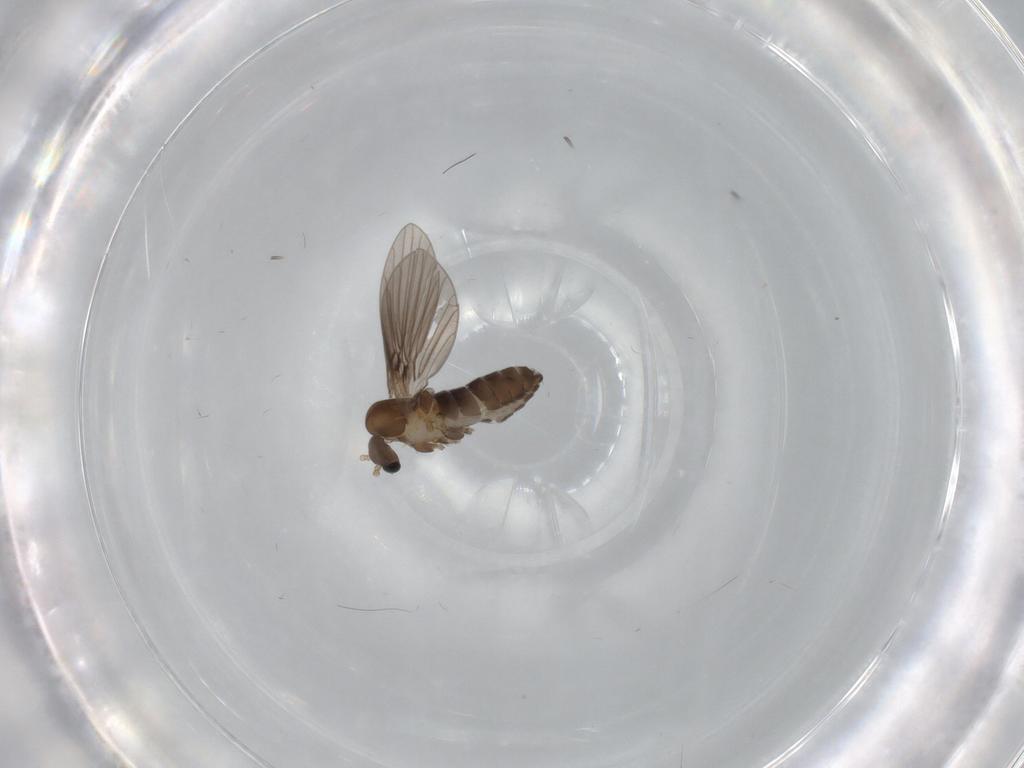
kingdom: Animalia
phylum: Arthropoda
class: Insecta
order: Diptera
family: Psychodidae
